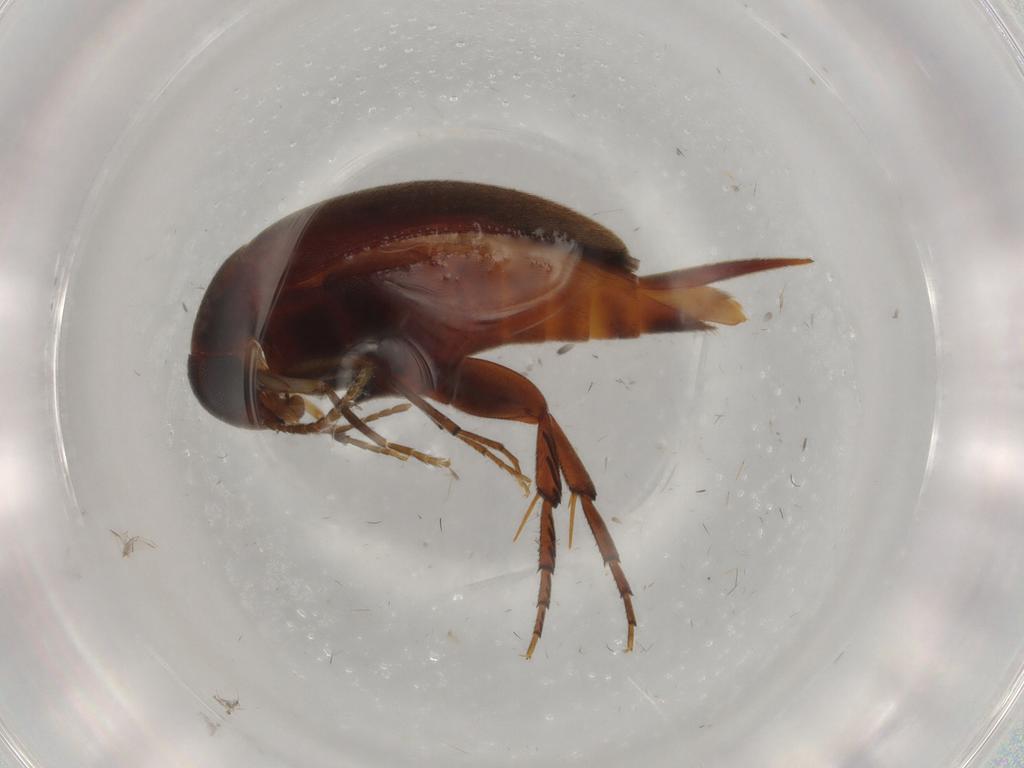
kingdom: Animalia
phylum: Arthropoda
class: Insecta
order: Coleoptera
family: Mordellidae
